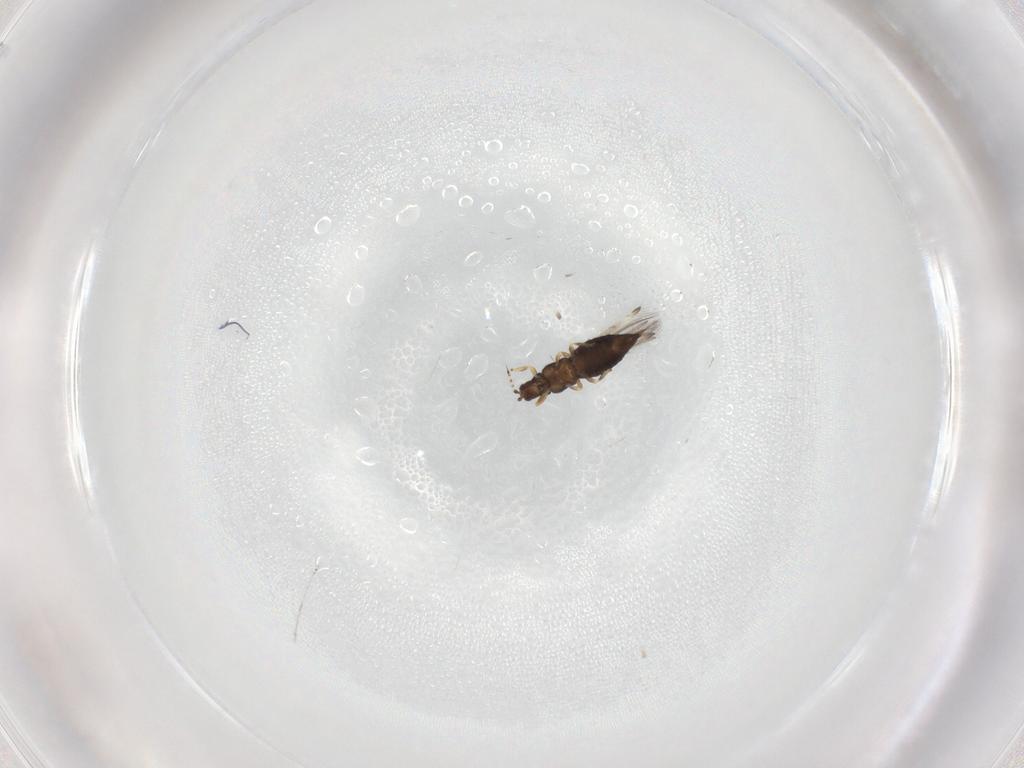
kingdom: Animalia
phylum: Arthropoda
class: Insecta
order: Thysanoptera
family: Thripidae
